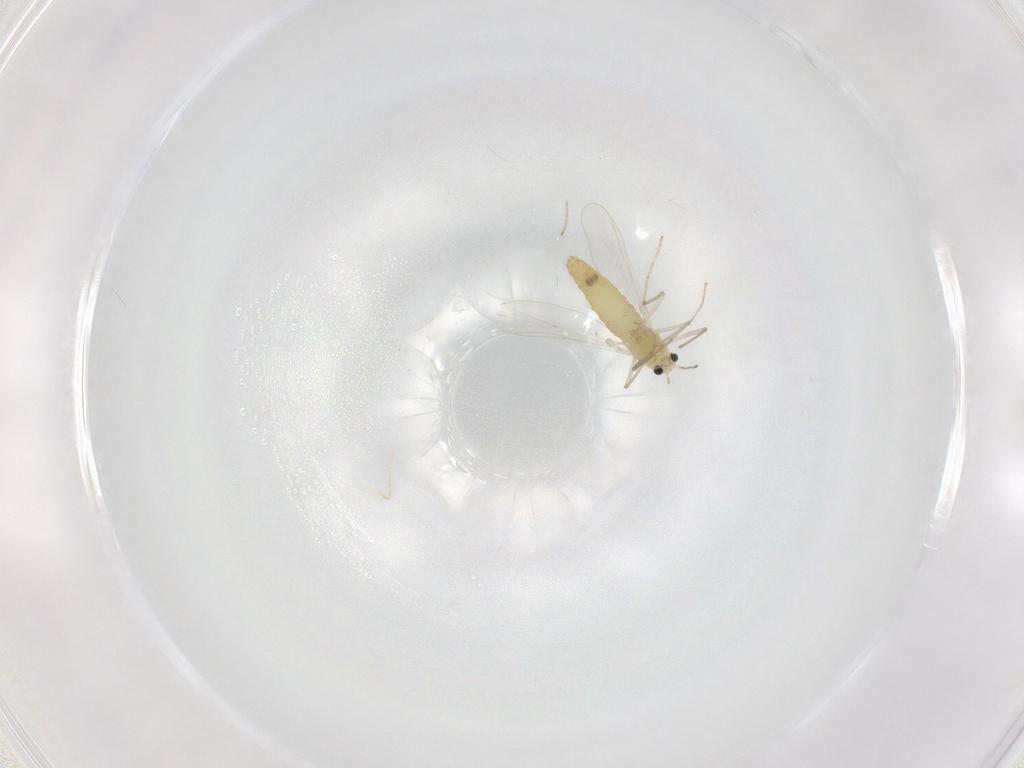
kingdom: Animalia
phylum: Arthropoda
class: Insecta
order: Diptera
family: Chironomidae
